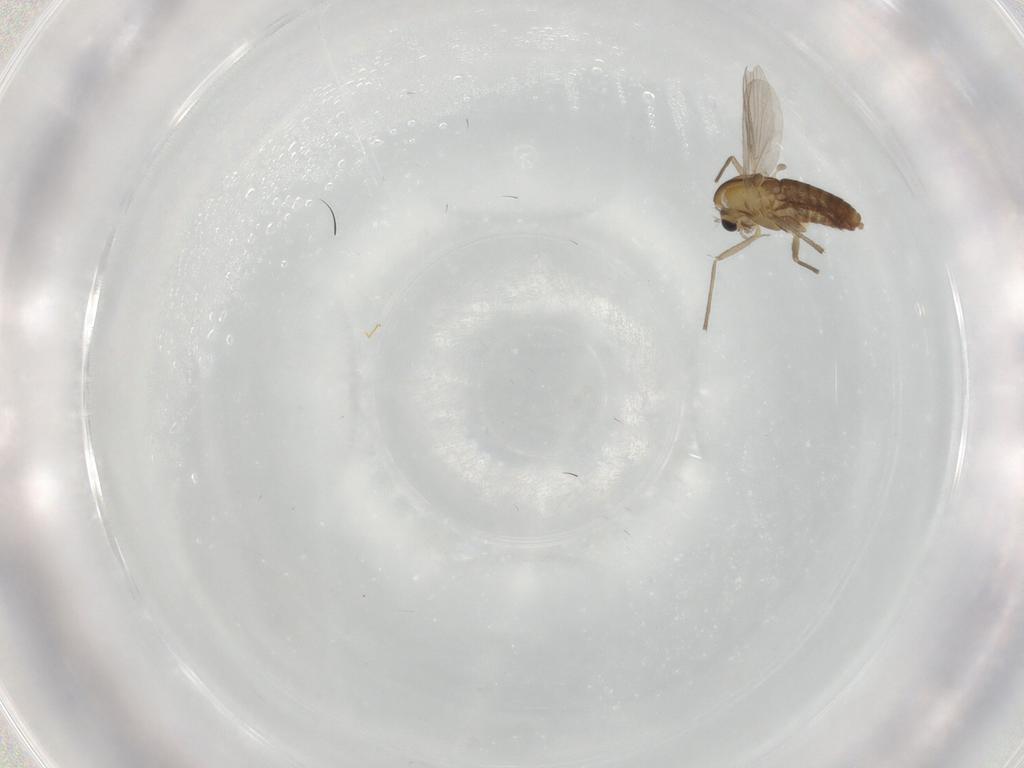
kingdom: Animalia
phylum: Arthropoda
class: Insecta
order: Diptera
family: Chironomidae
